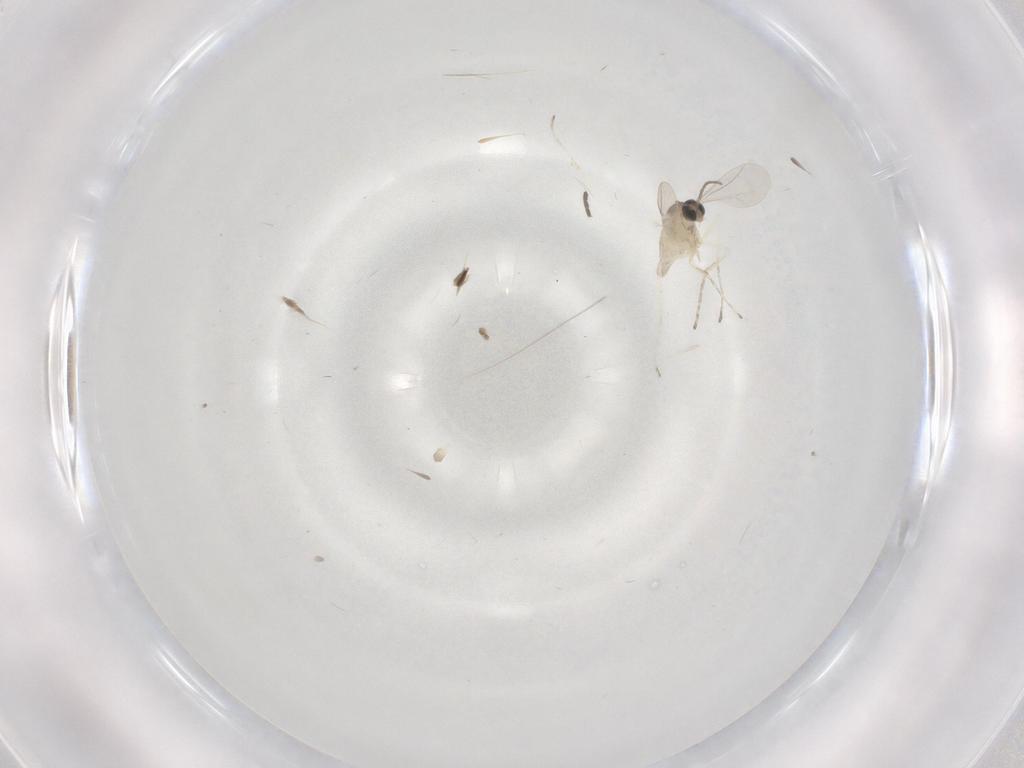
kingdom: Animalia
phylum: Arthropoda
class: Insecta
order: Diptera
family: Cecidomyiidae
